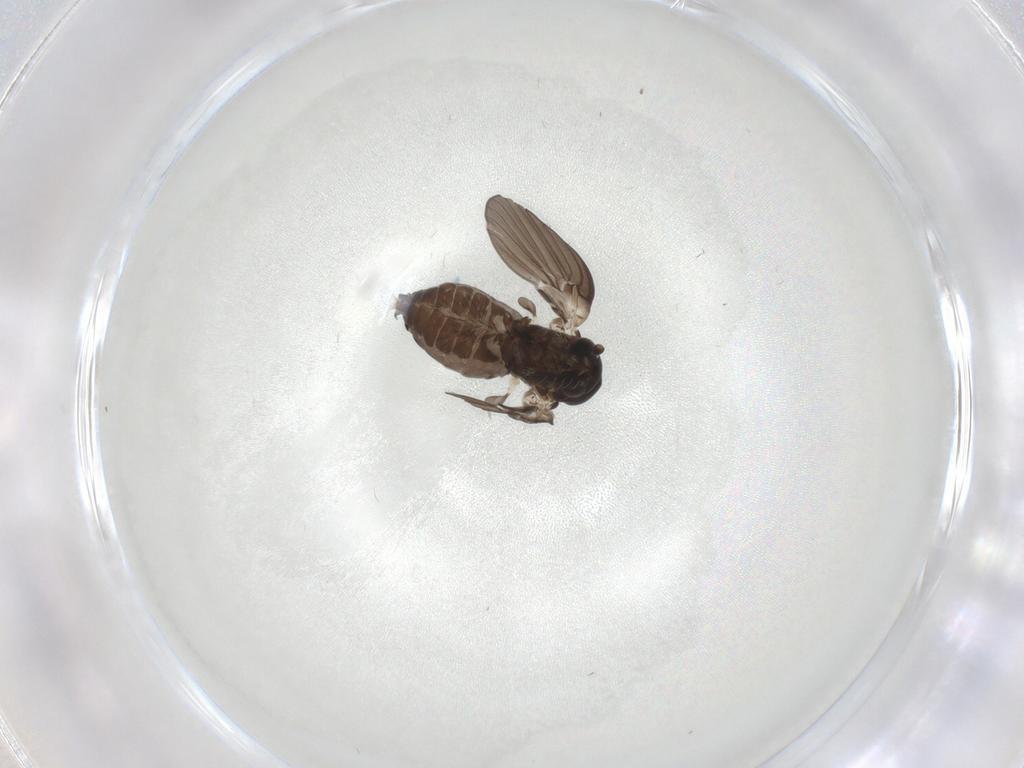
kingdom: Animalia
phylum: Arthropoda
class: Insecta
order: Diptera
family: Psychodidae
